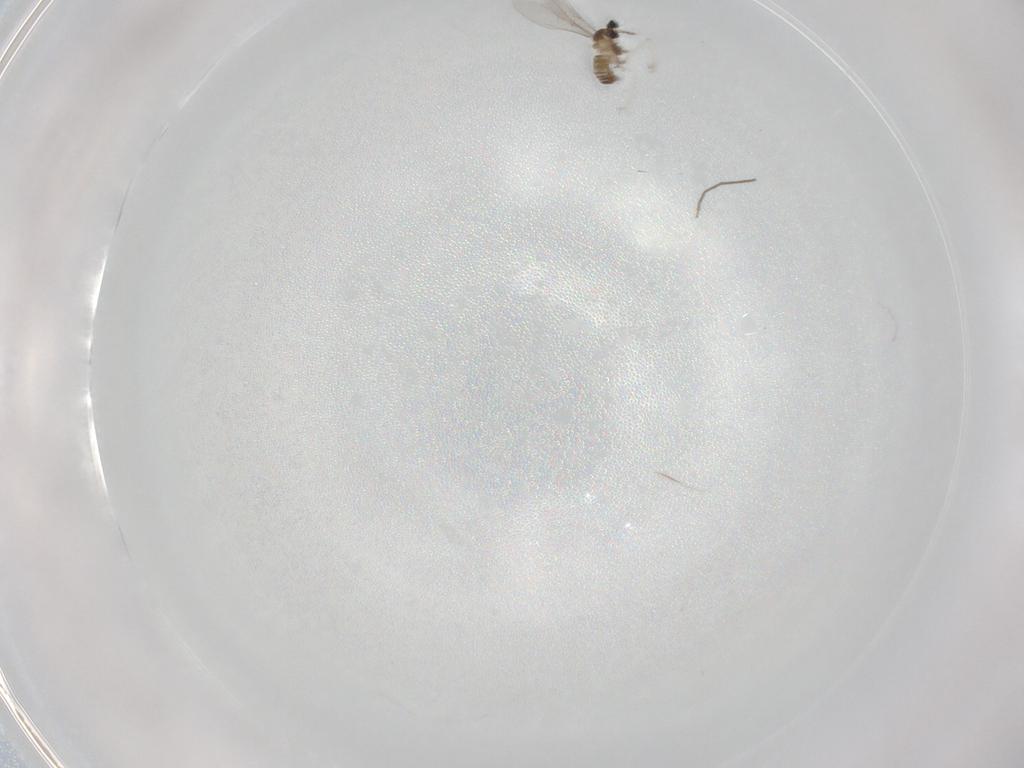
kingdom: Animalia
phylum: Arthropoda
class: Insecta
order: Diptera
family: Cecidomyiidae
